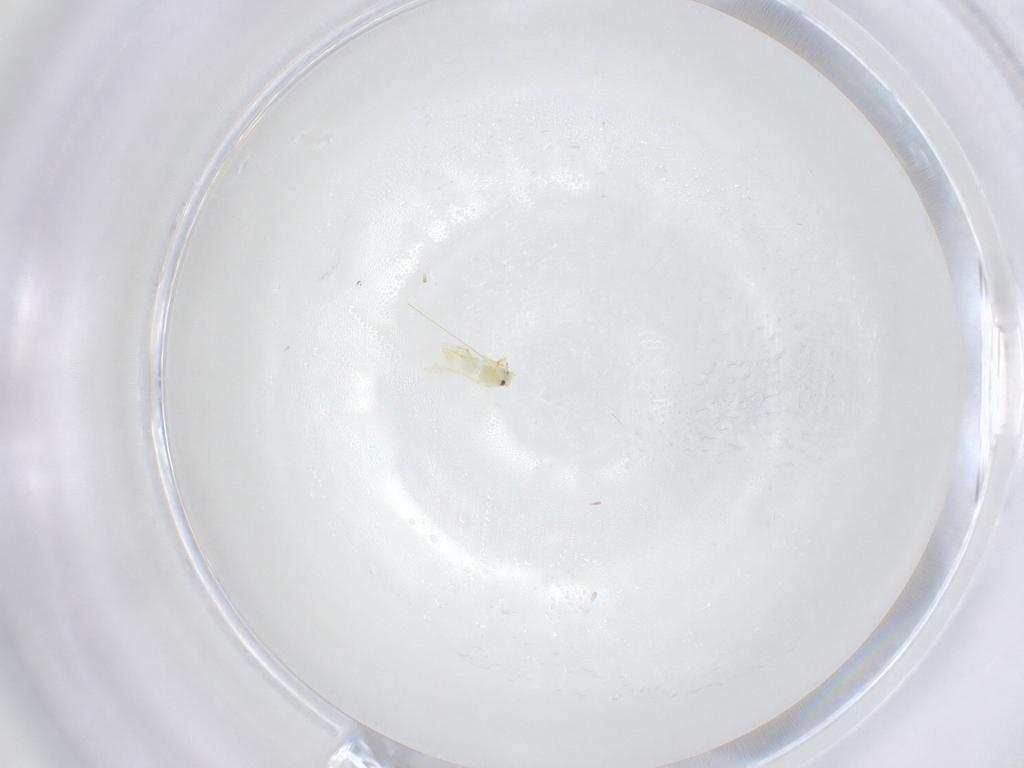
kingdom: Animalia
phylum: Arthropoda
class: Insecta
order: Hemiptera
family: Aleyrodidae
